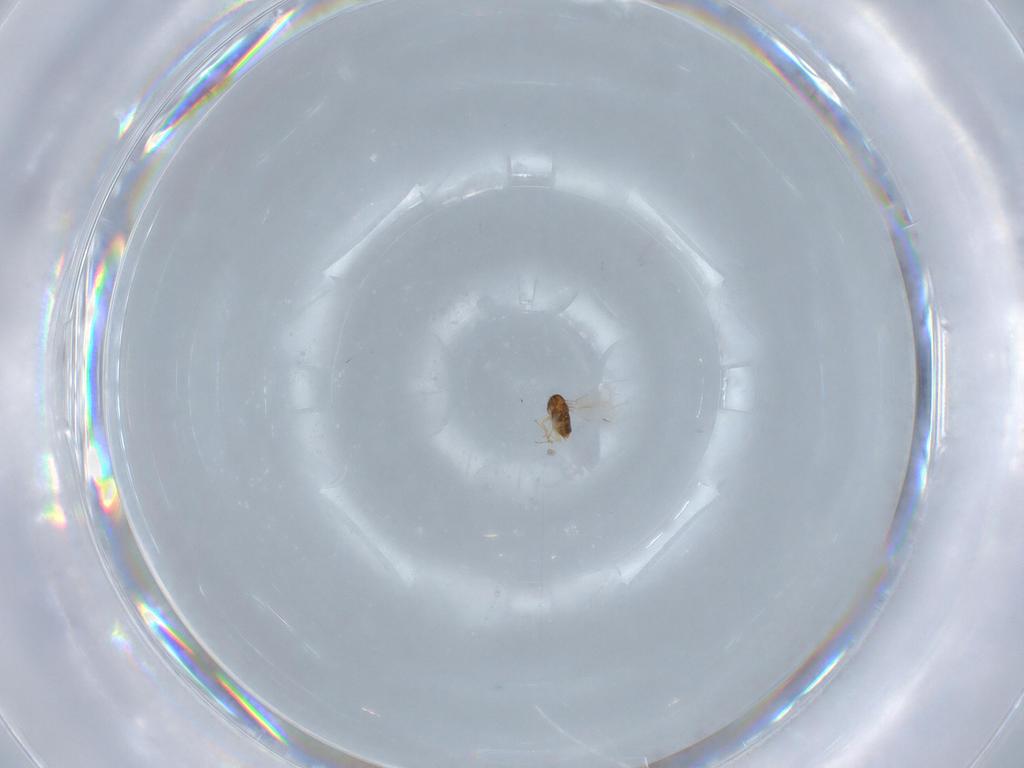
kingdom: Animalia
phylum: Arthropoda
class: Insecta
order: Hymenoptera
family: Aphelinidae
